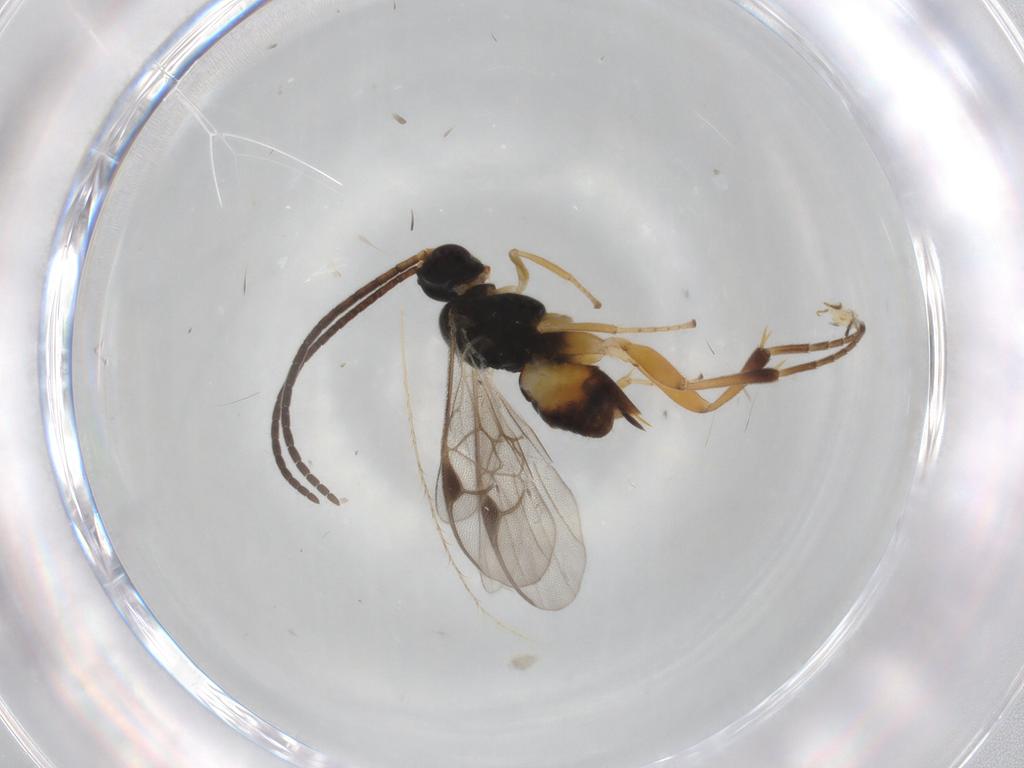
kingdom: Animalia
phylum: Arthropoda
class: Insecta
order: Hymenoptera
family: Braconidae
